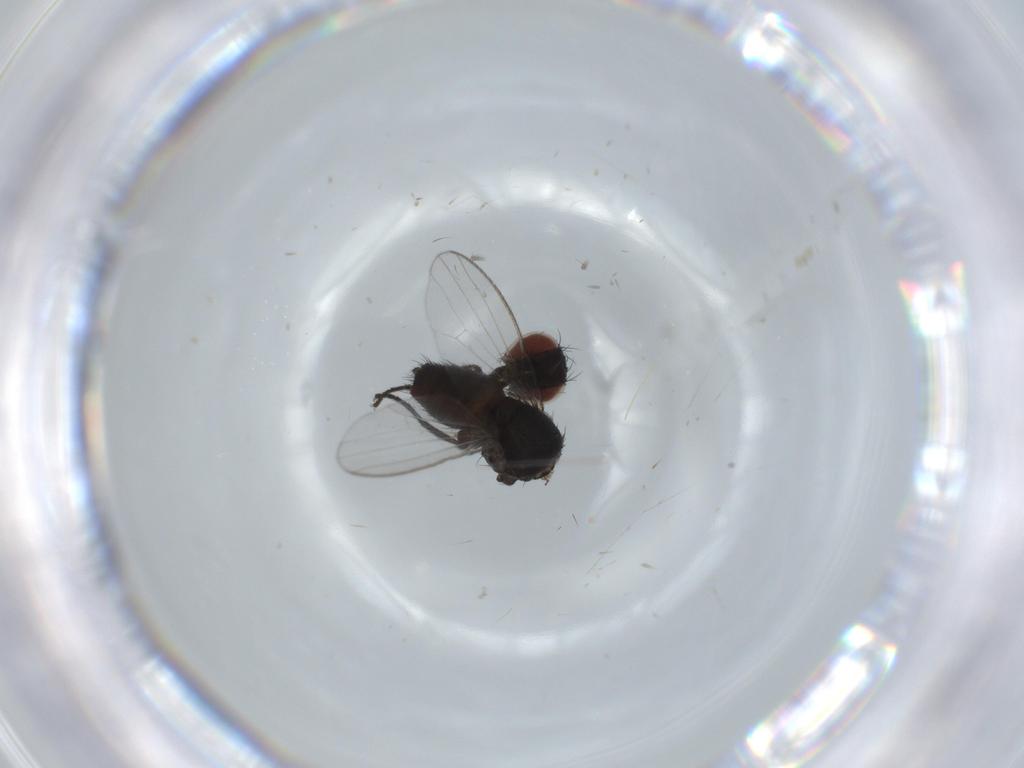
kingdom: Animalia
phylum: Arthropoda
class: Insecta
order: Diptera
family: Milichiidae
